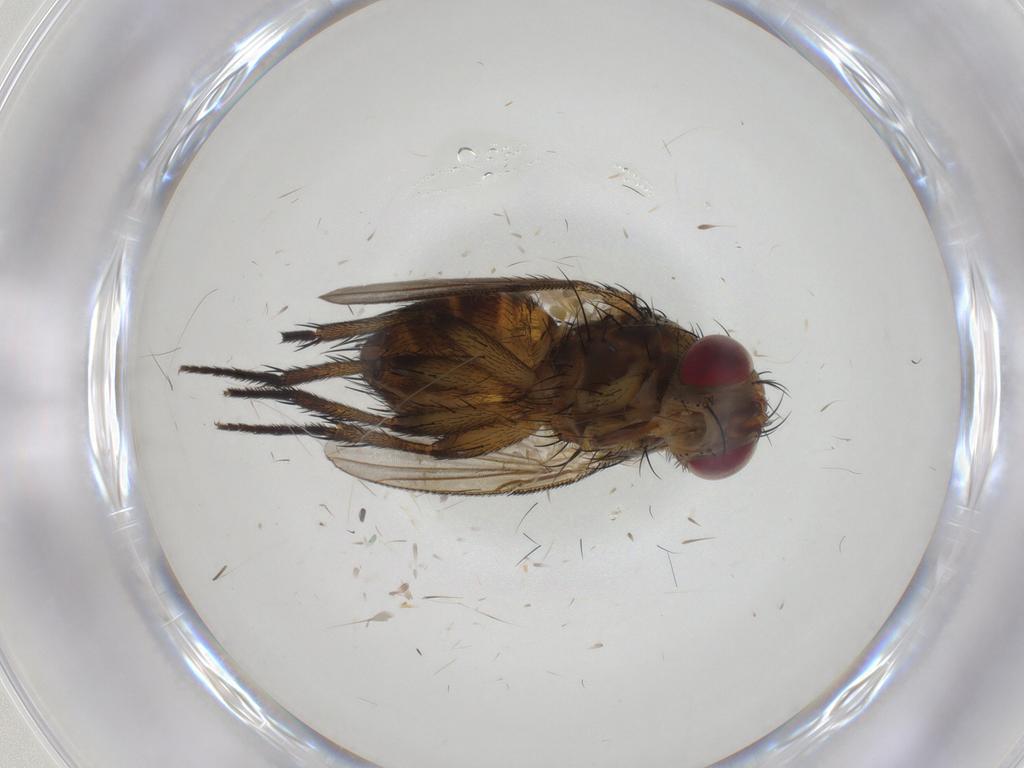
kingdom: Animalia
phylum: Arthropoda
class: Insecta
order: Diptera
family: Tachinidae
